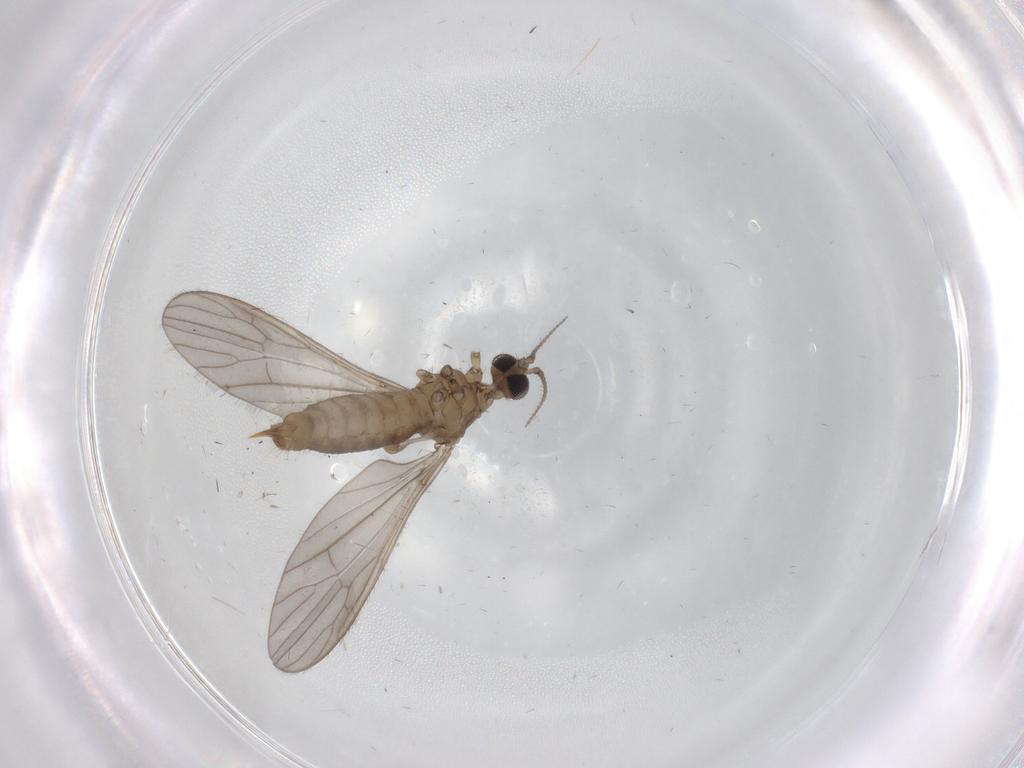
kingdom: Animalia
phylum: Arthropoda
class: Insecta
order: Diptera
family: Limoniidae
